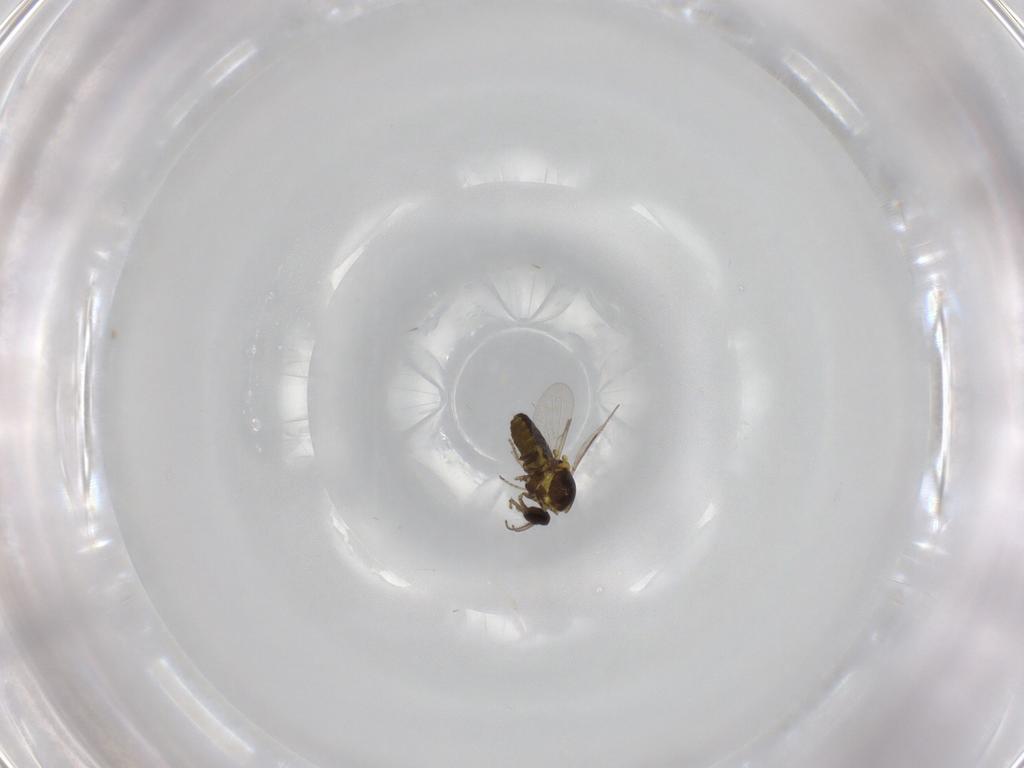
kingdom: Animalia
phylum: Arthropoda
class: Insecta
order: Diptera
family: Ceratopogonidae
